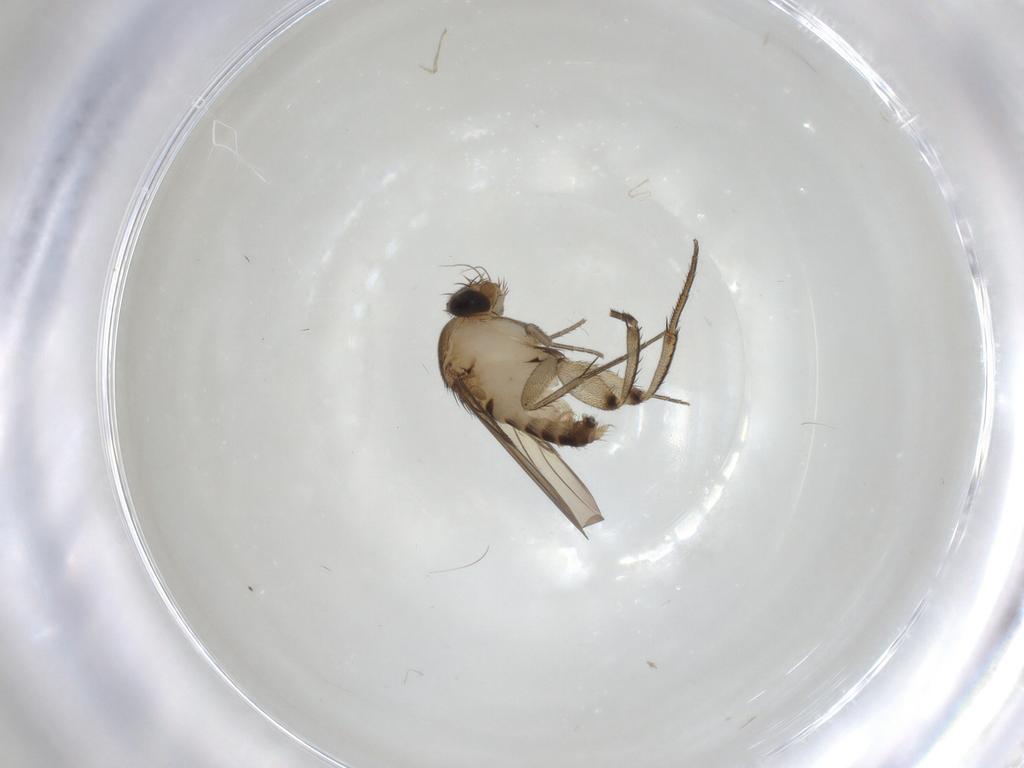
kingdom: Animalia
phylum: Arthropoda
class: Insecta
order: Diptera
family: Phoridae
